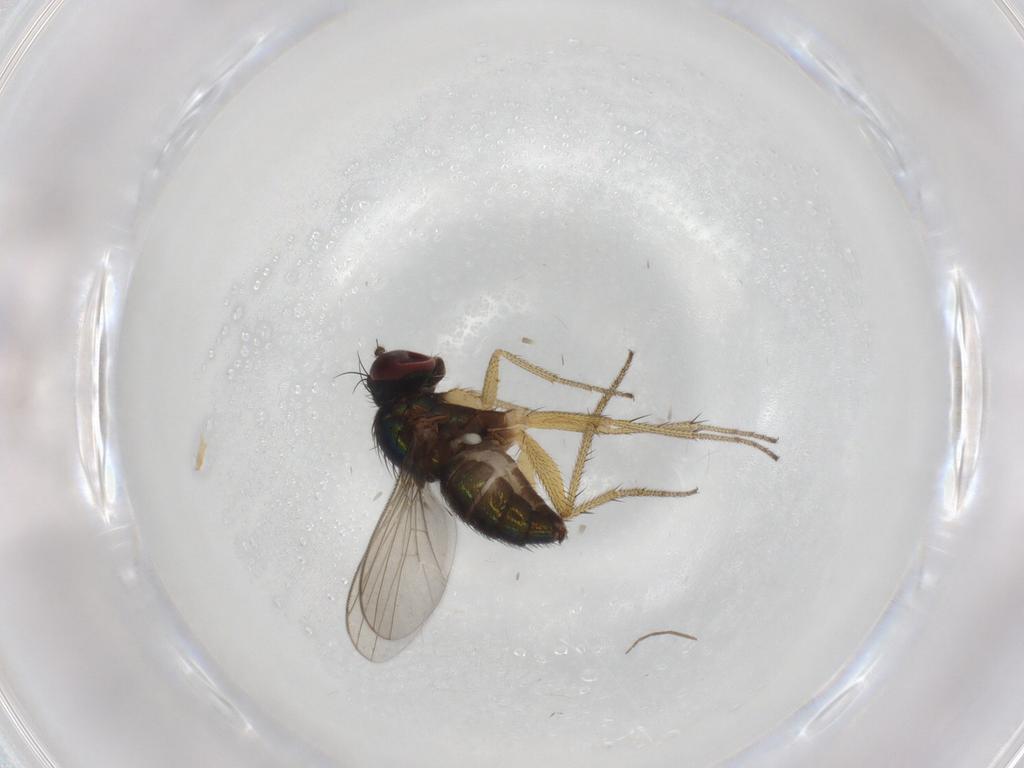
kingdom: Animalia
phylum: Arthropoda
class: Insecta
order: Diptera
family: Dolichopodidae
